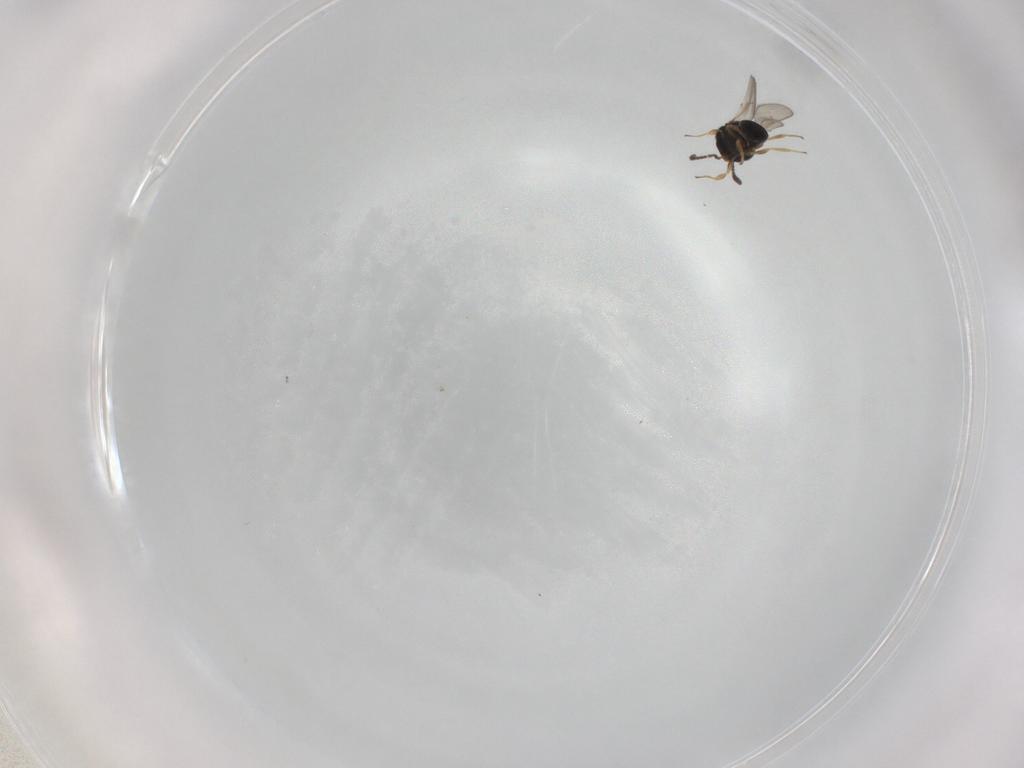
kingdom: Animalia
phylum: Arthropoda
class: Insecta
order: Hymenoptera
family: Scelionidae
